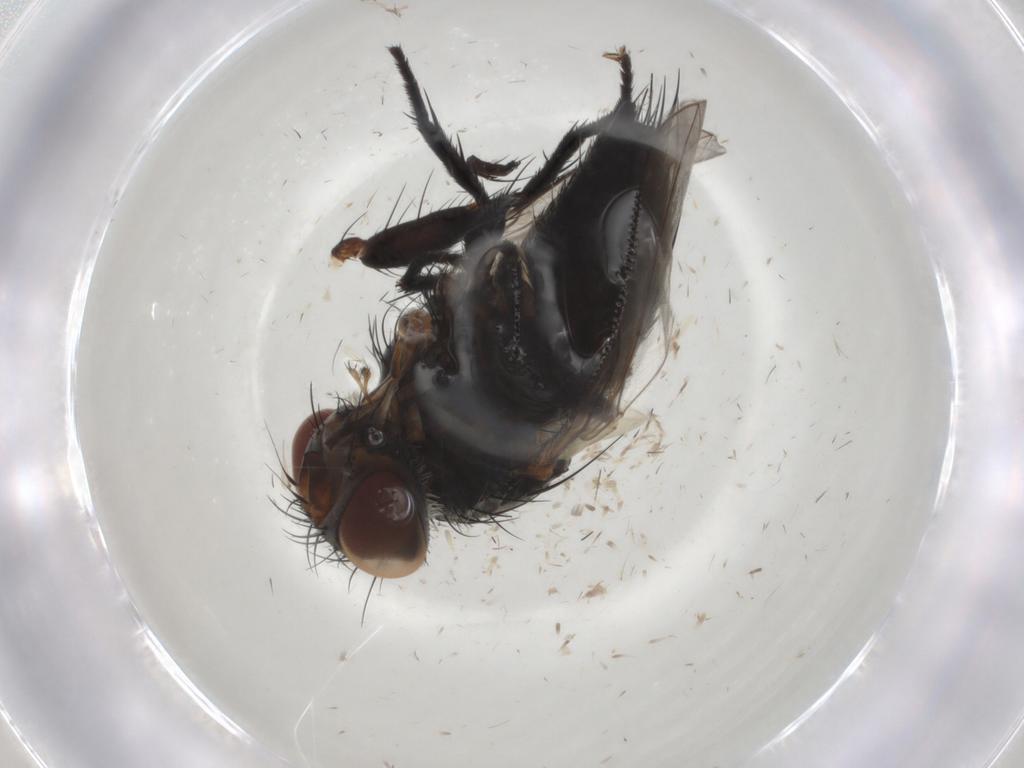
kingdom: Animalia
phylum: Arthropoda
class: Insecta
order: Diptera
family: Tachinidae
